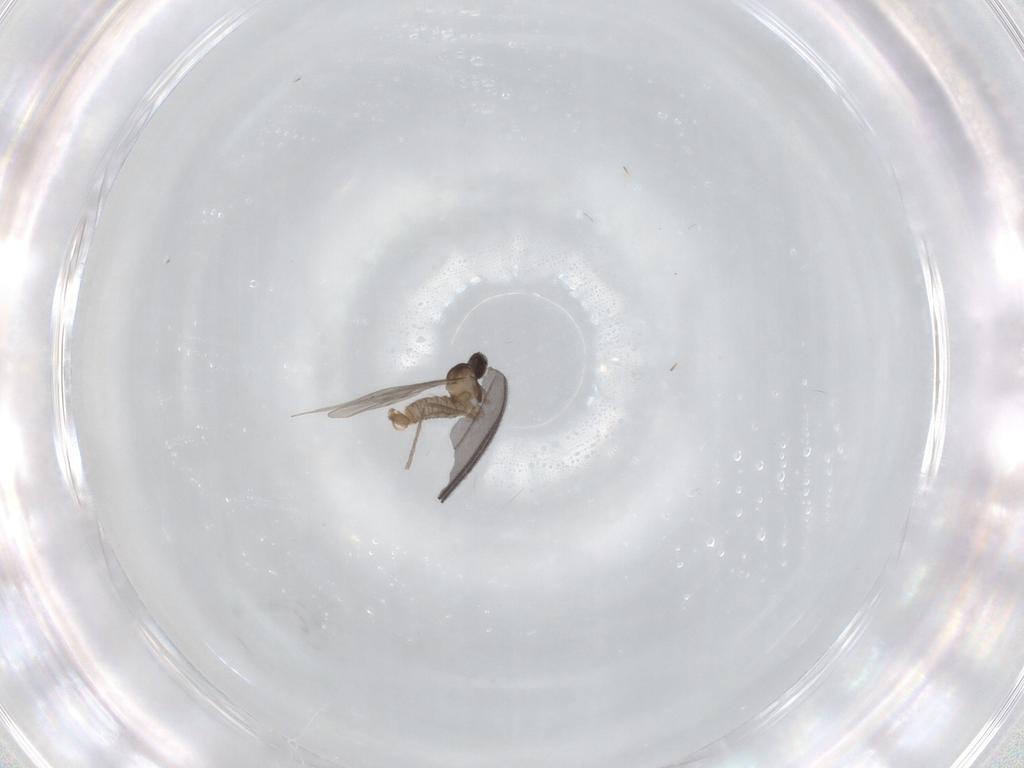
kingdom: Animalia
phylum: Arthropoda
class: Insecta
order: Diptera
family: Cecidomyiidae
